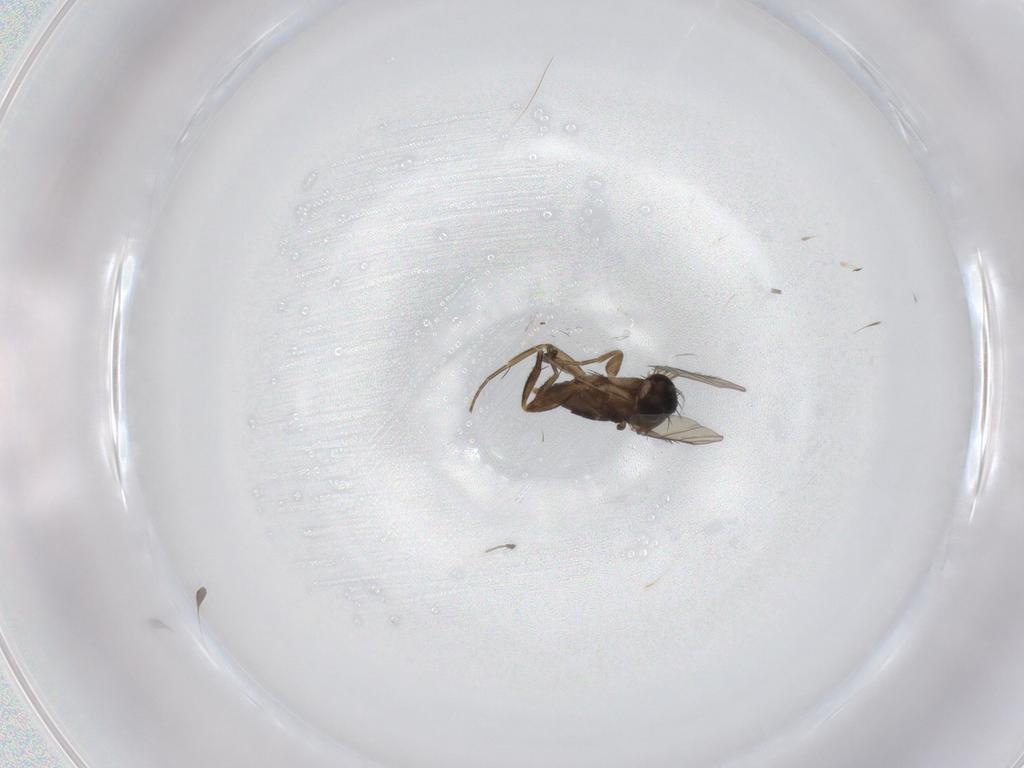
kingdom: Animalia
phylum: Arthropoda
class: Insecta
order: Diptera
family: Phoridae
